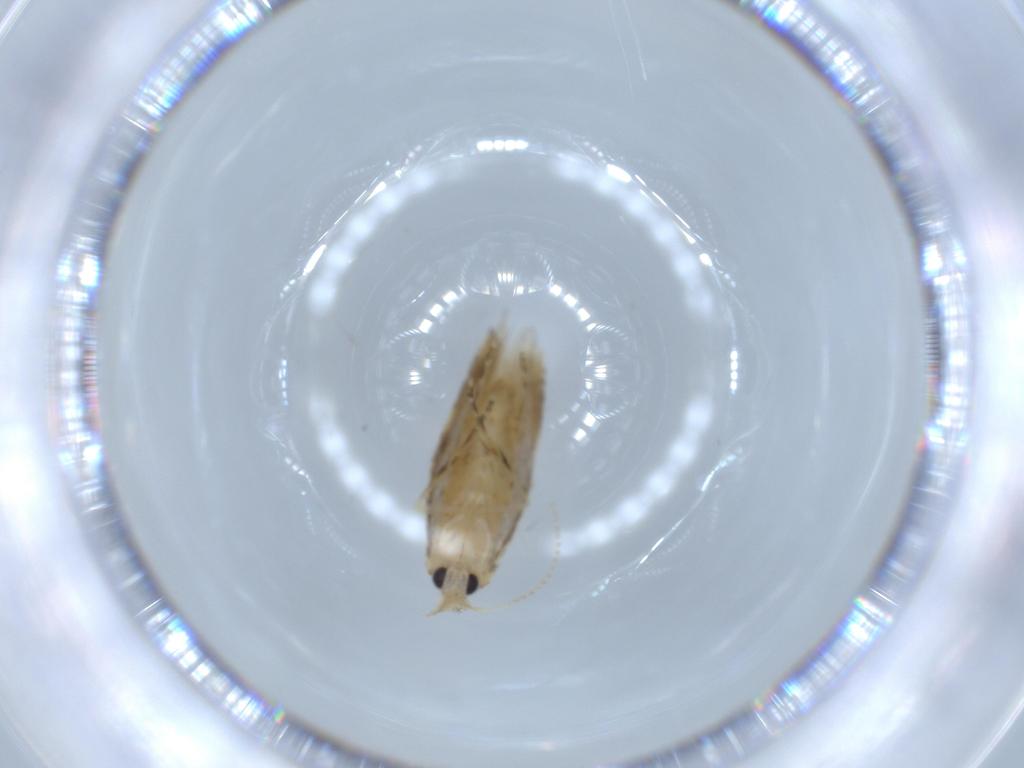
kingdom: Animalia
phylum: Arthropoda
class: Insecta
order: Lepidoptera
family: Bucculatricidae
